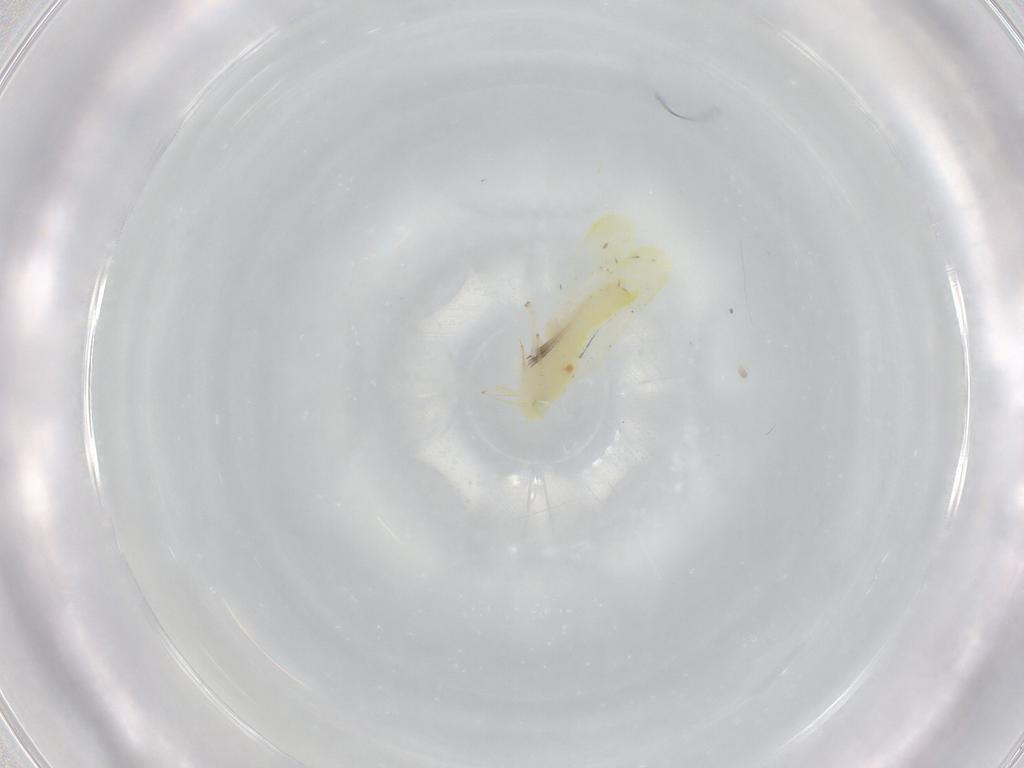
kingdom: Animalia
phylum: Arthropoda
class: Insecta
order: Hemiptera
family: Cicadellidae
